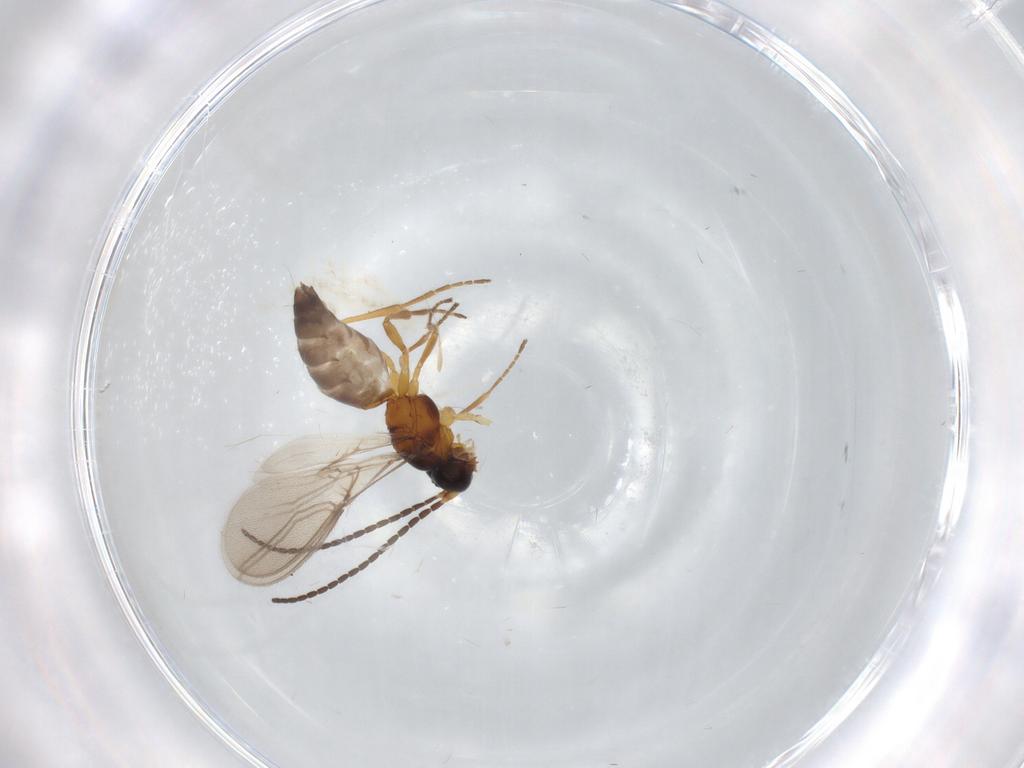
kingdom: Animalia
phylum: Arthropoda
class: Insecta
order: Hymenoptera
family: Braconidae
